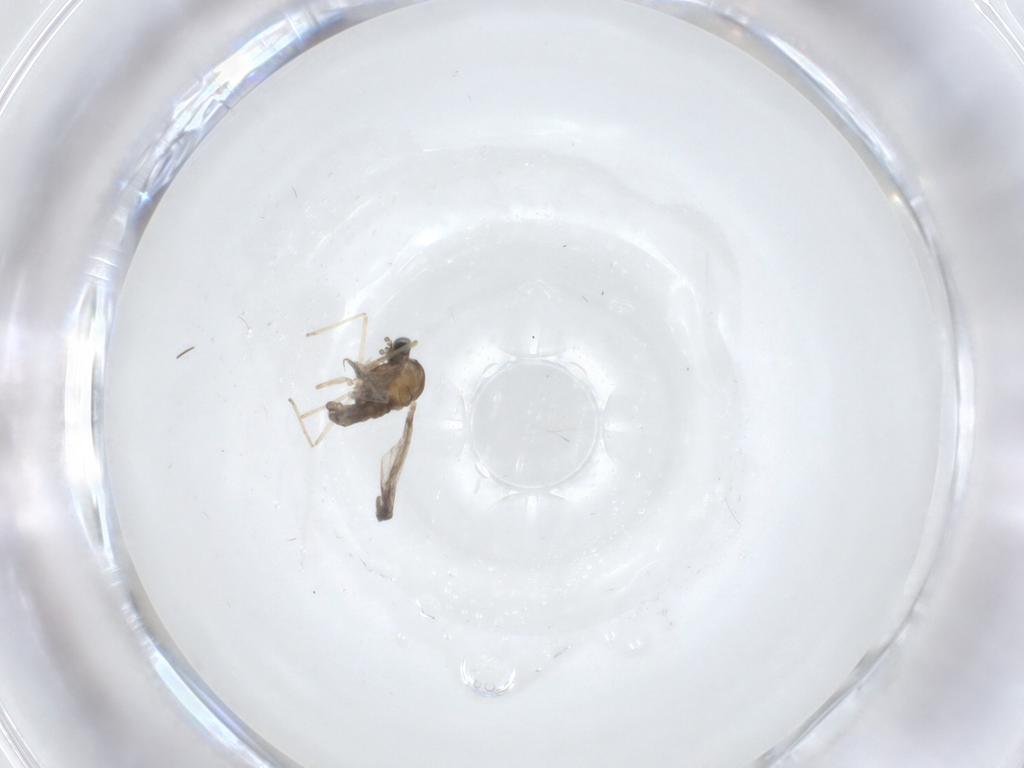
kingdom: Animalia
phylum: Arthropoda
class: Insecta
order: Diptera
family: Cecidomyiidae
